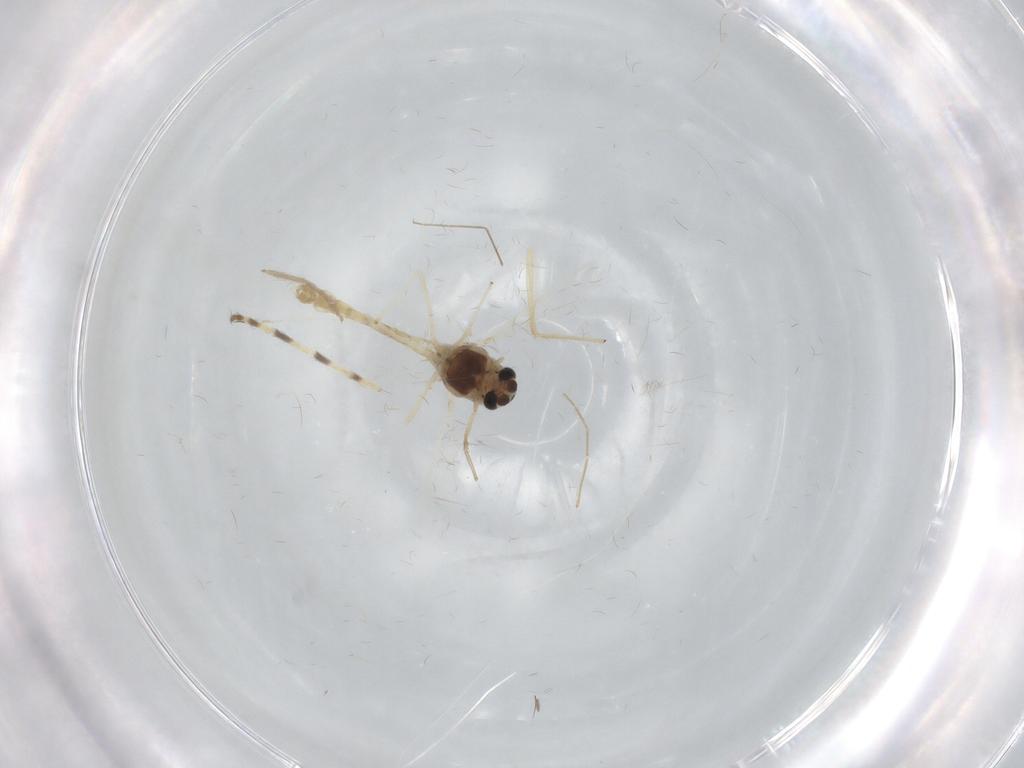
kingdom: Animalia
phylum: Arthropoda
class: Insecta
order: Diptera
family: Chironomidae
